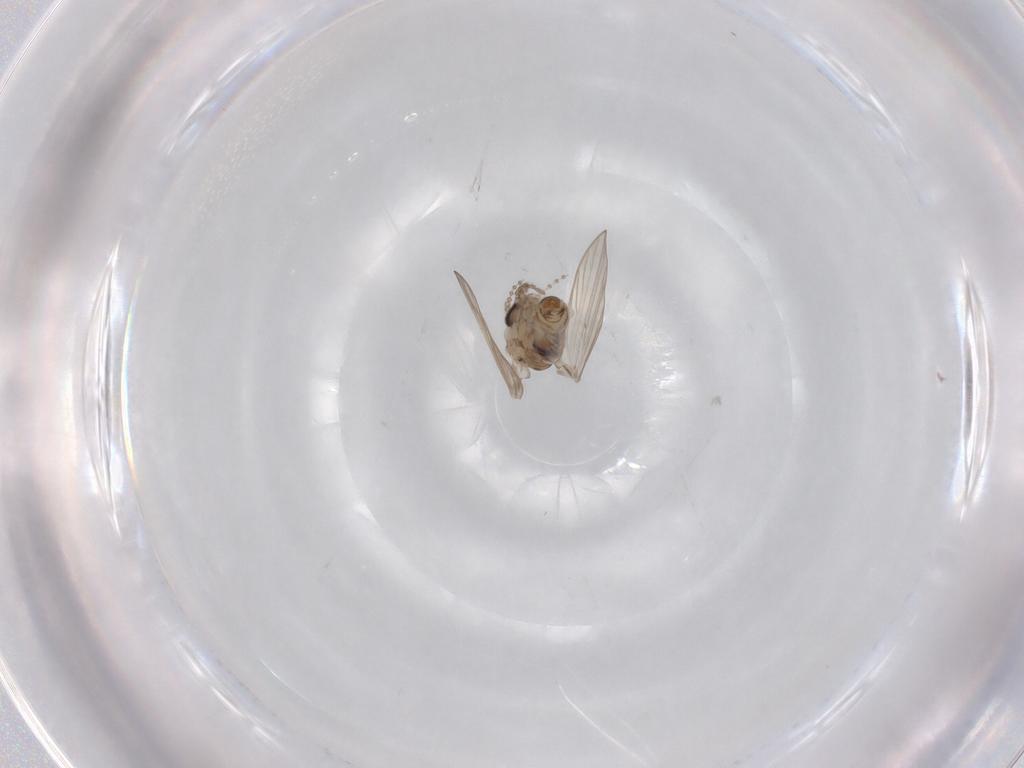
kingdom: Animalia
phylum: Arthropoda
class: Insecta
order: Diptera
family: Psychodidae
